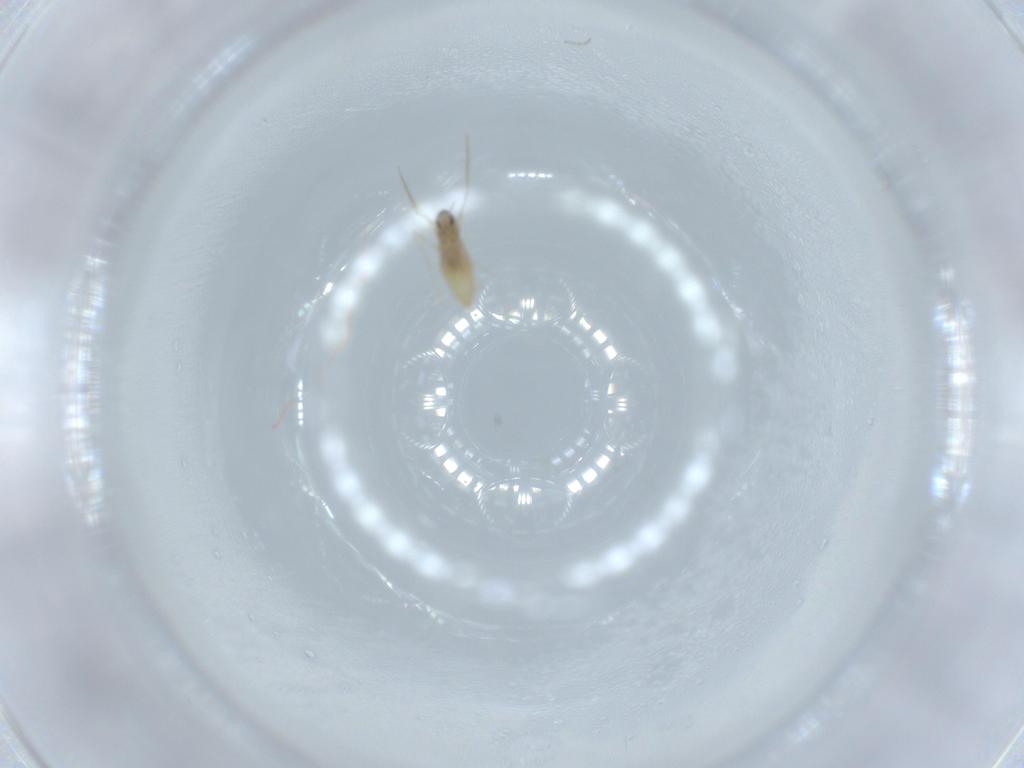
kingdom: Animalia
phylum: Arthropoda
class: Insecta
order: Diptera
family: Cecidomyiidae
